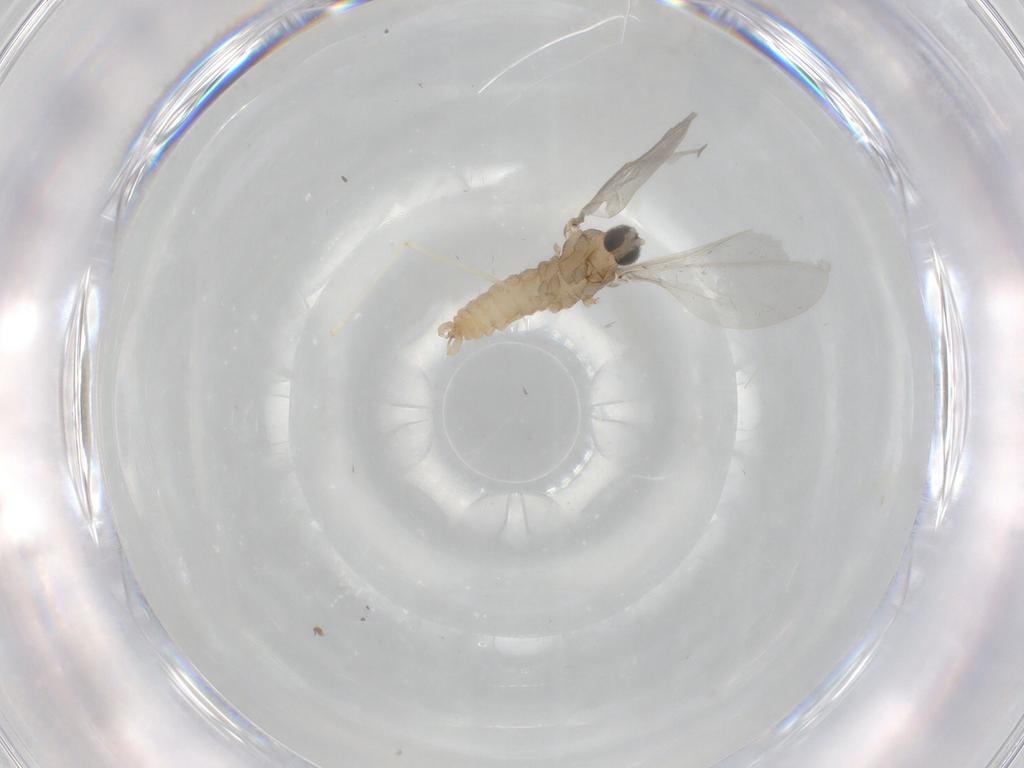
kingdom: Animalia
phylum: Arthropoda
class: Insecta
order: Diptera
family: Cecidomyiidae
